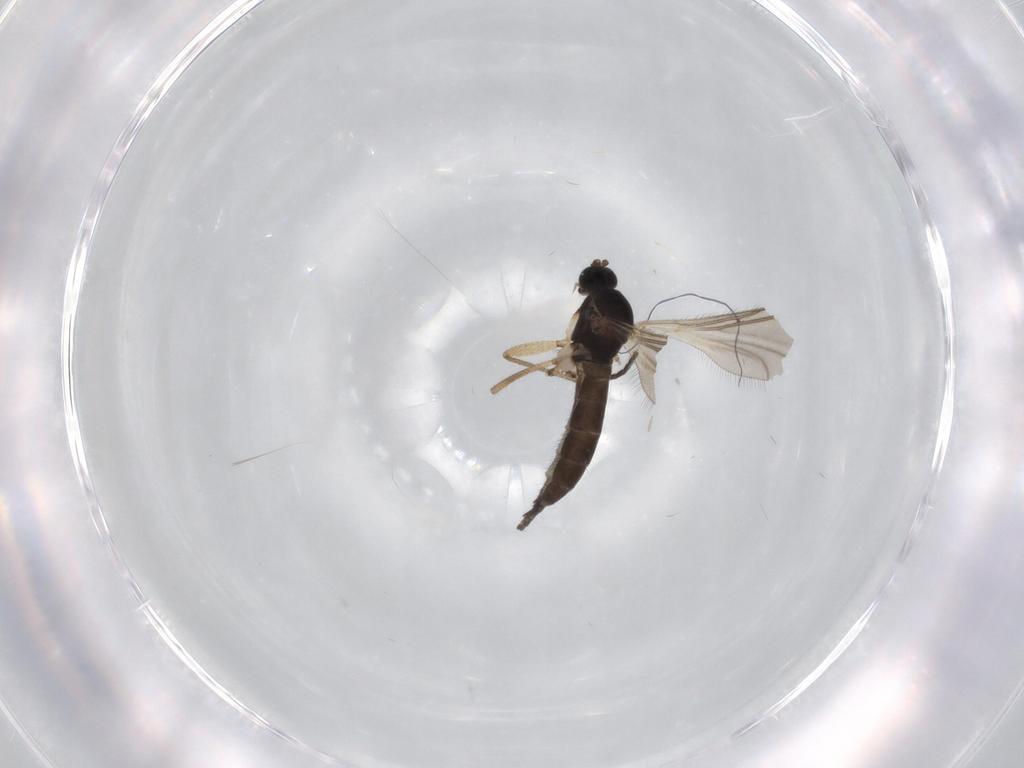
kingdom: Animalia
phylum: Arthropoda
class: Insecta
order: Diptera
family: Sciaridae
